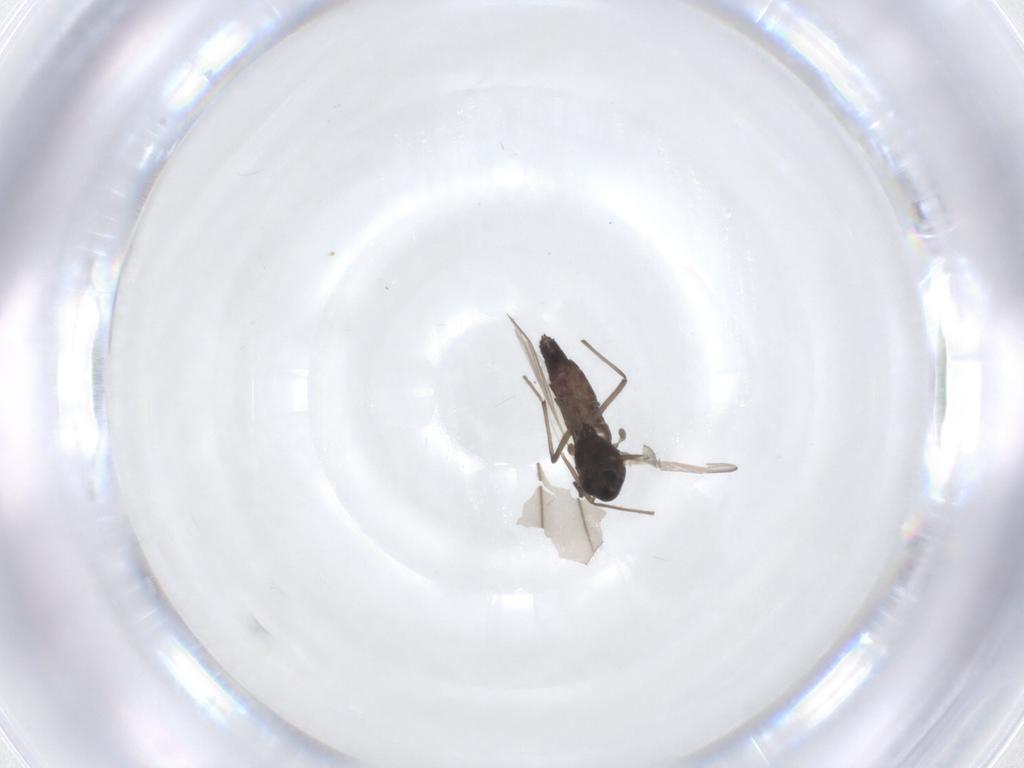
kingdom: Animalia
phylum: Arthropoda
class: Insecta
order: Diptera
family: Chironomidae
